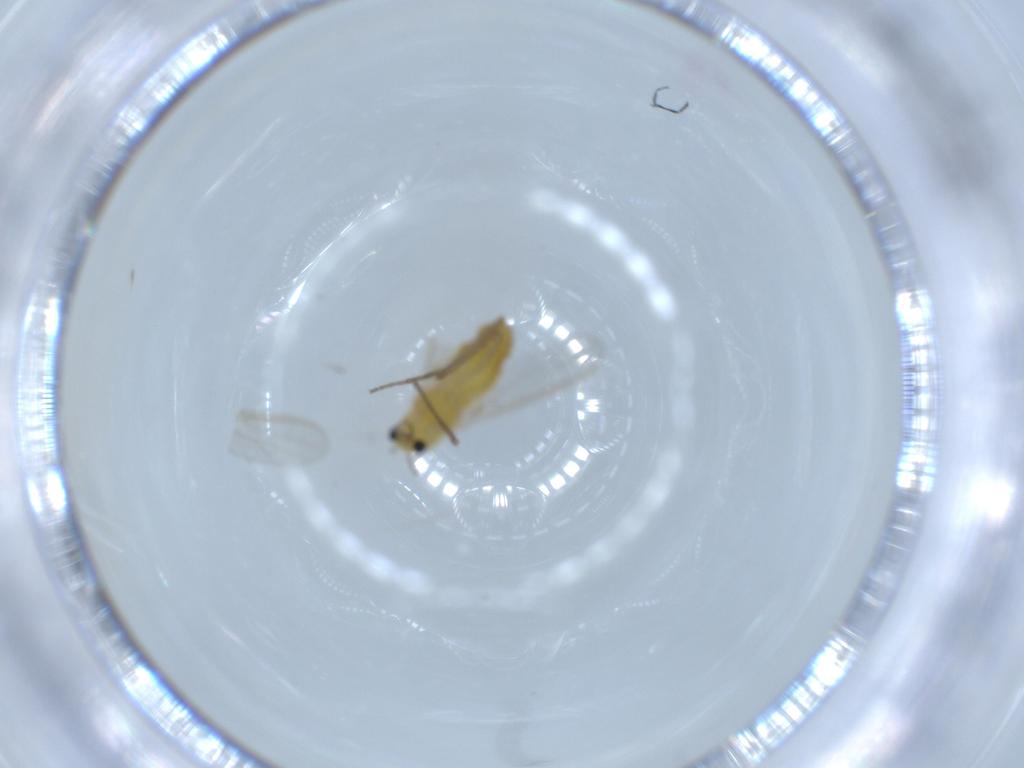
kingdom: Animalia
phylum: Arthropoda
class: Insecta
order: Diptera
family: Chironomidae
